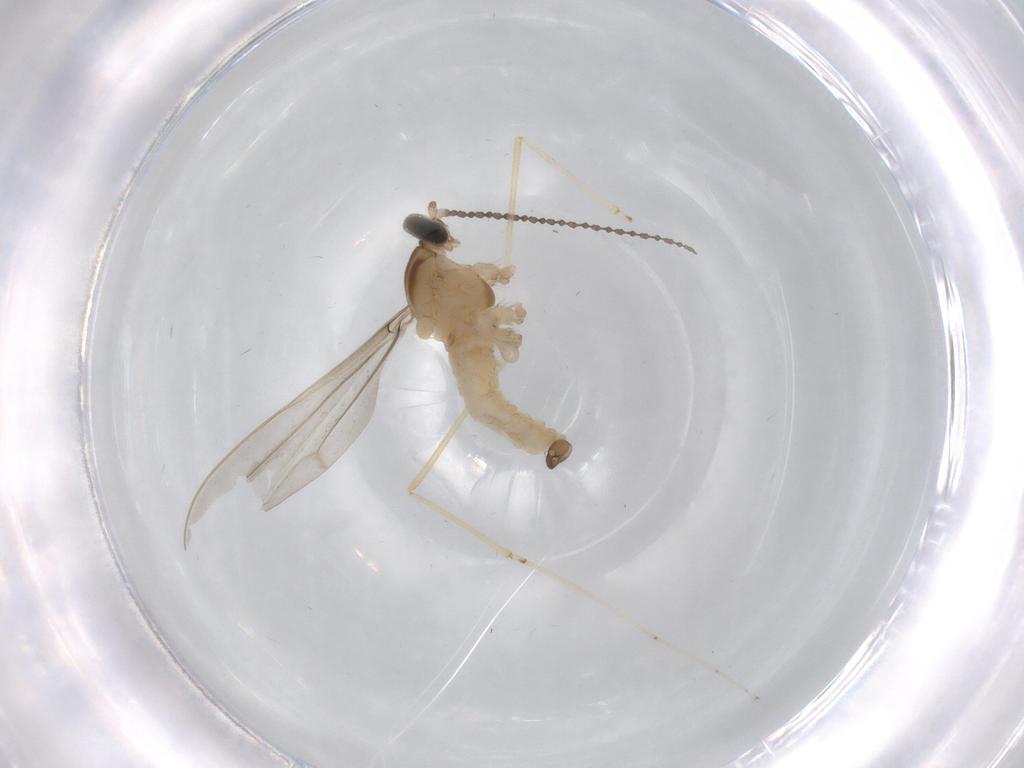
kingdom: Animalia
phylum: Arthropoda
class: Insecta
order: Diptera
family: Cecidomyiidae
